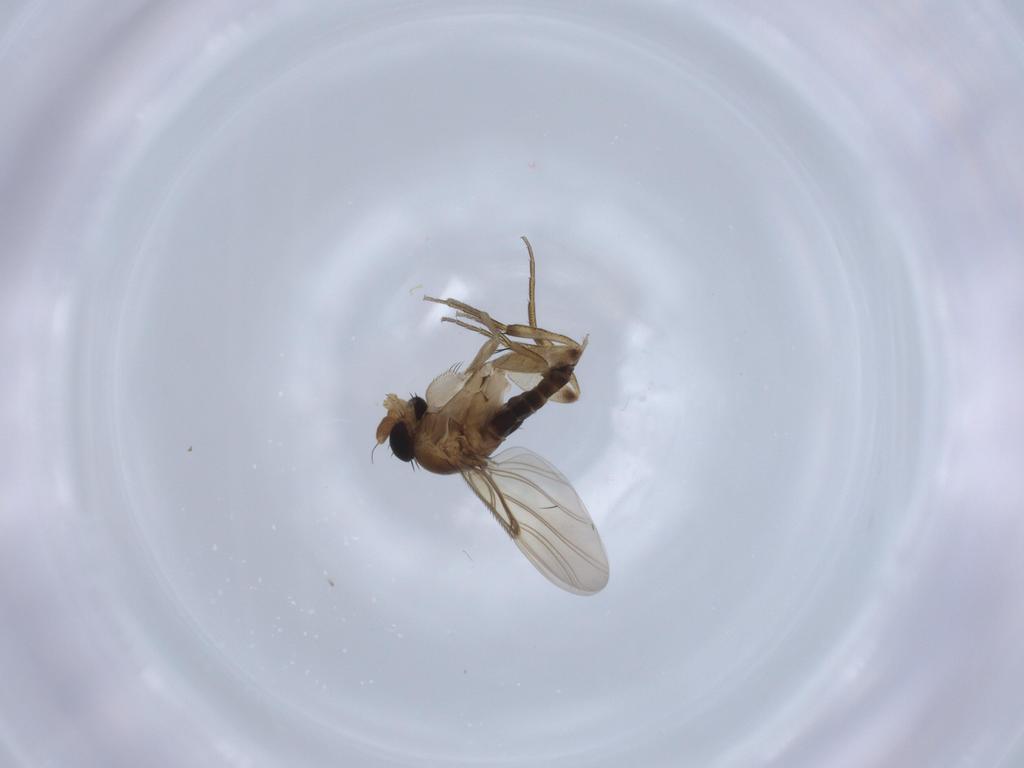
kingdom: Animalia
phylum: Arthropoda
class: Insecta
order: Diptera
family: Phoridae
